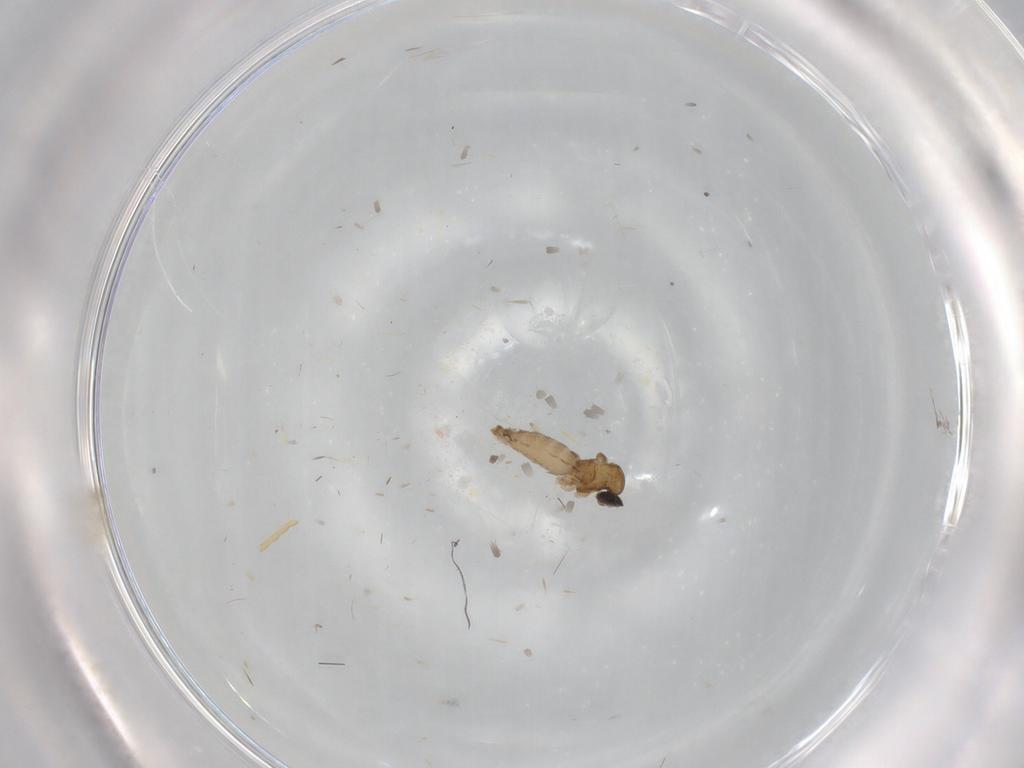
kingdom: Animalia
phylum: Arthropoda
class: Insecta
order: Diptera
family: Cecidomyiidae
